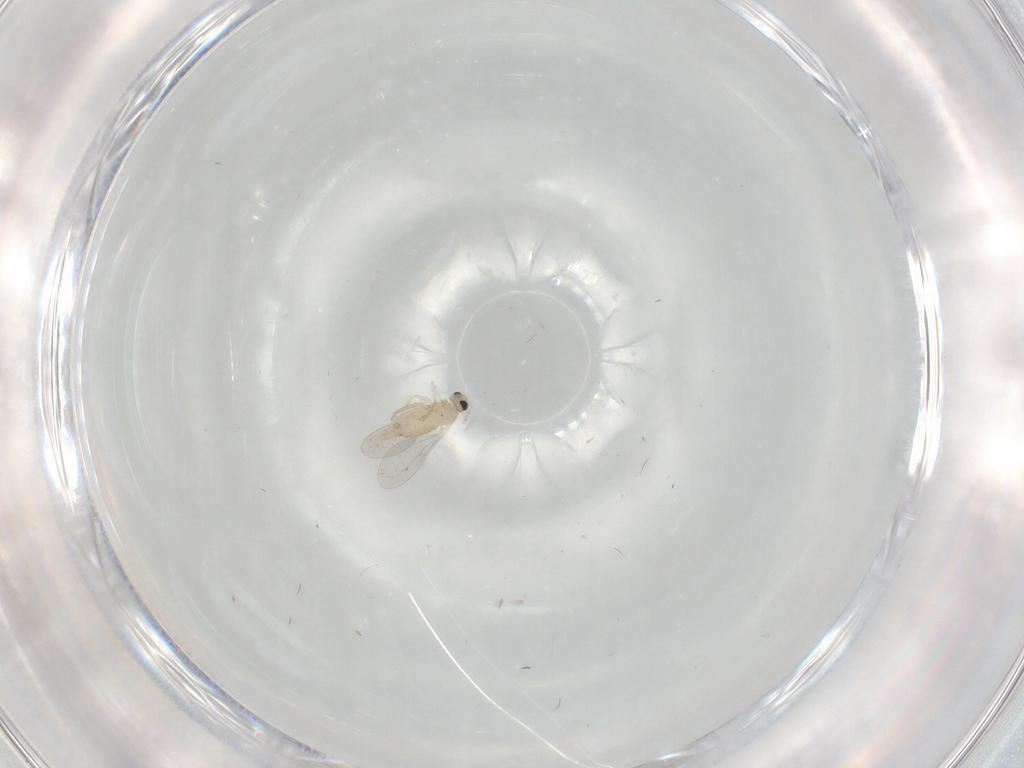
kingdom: Animalia
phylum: Arthropoda
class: Insecta
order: Diptera
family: Cecidomyiidae
